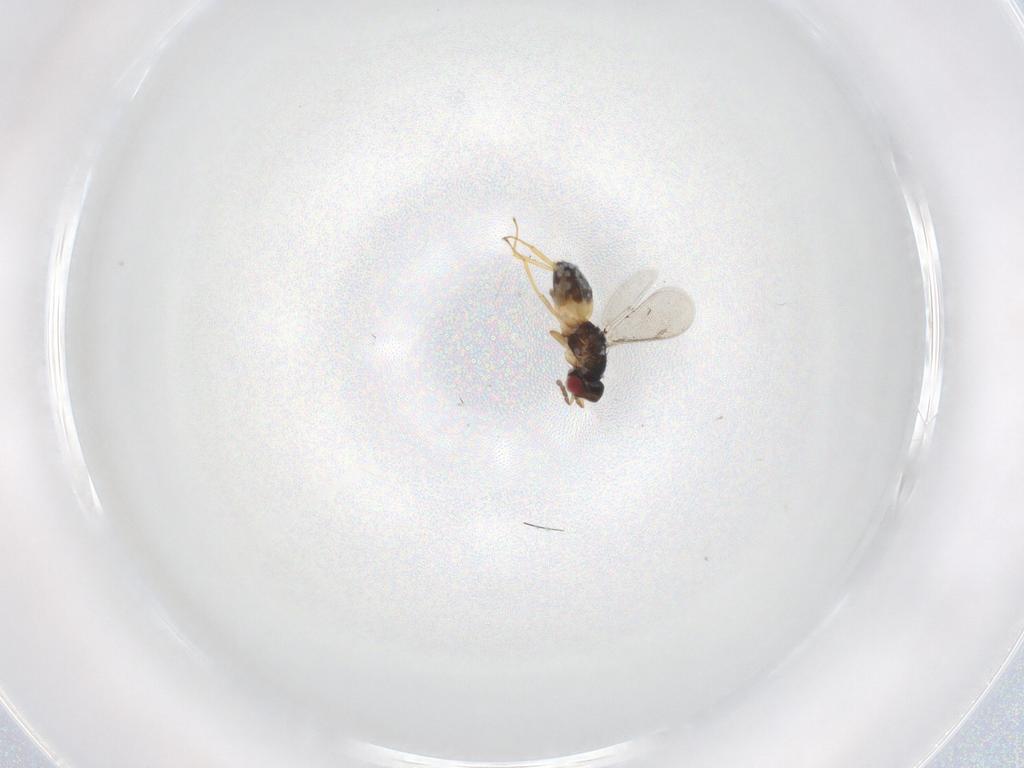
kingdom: Animalia
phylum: Arthropoda
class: Insecta
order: Hymenoptera
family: Eulophidae
